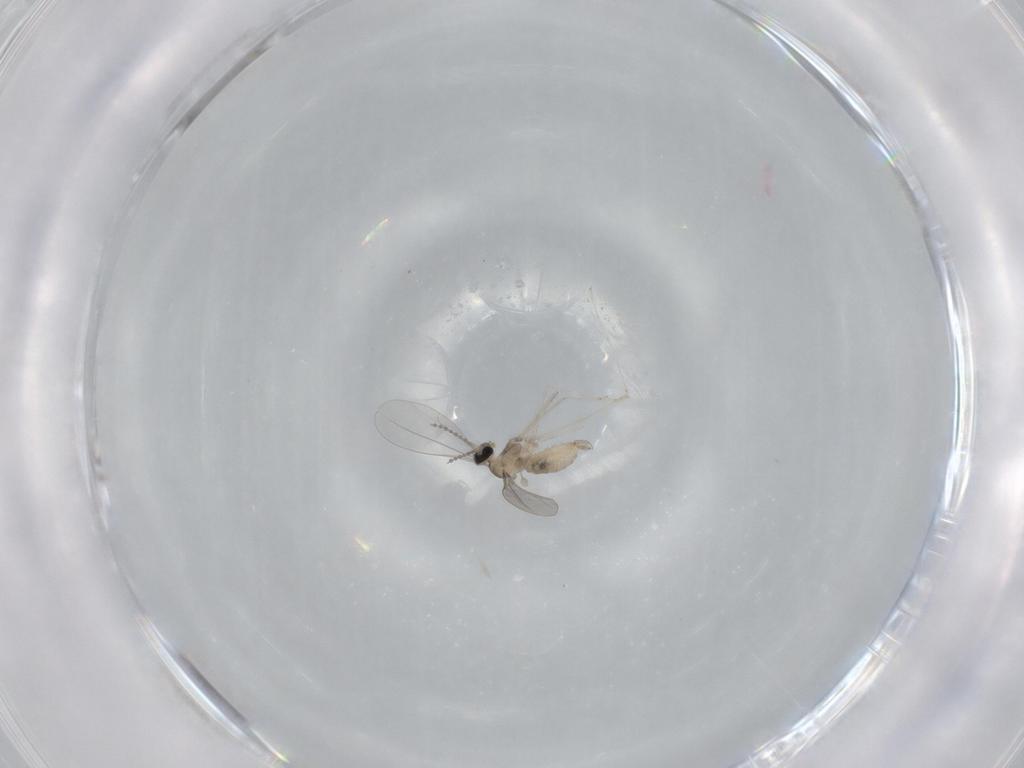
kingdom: Animalia
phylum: Arthropoda
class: Insecta
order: Diptera
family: Cecidomyiidae
